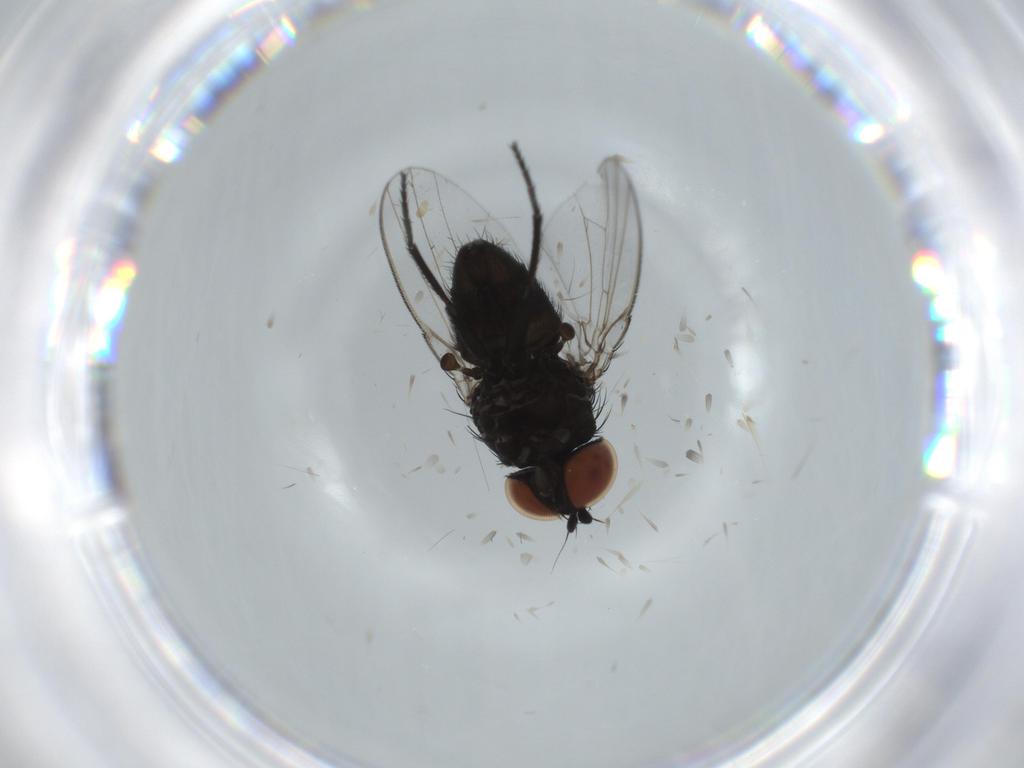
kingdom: Animalia
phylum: Arthropoda
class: Insecta
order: Diptera
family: Milichiidae
